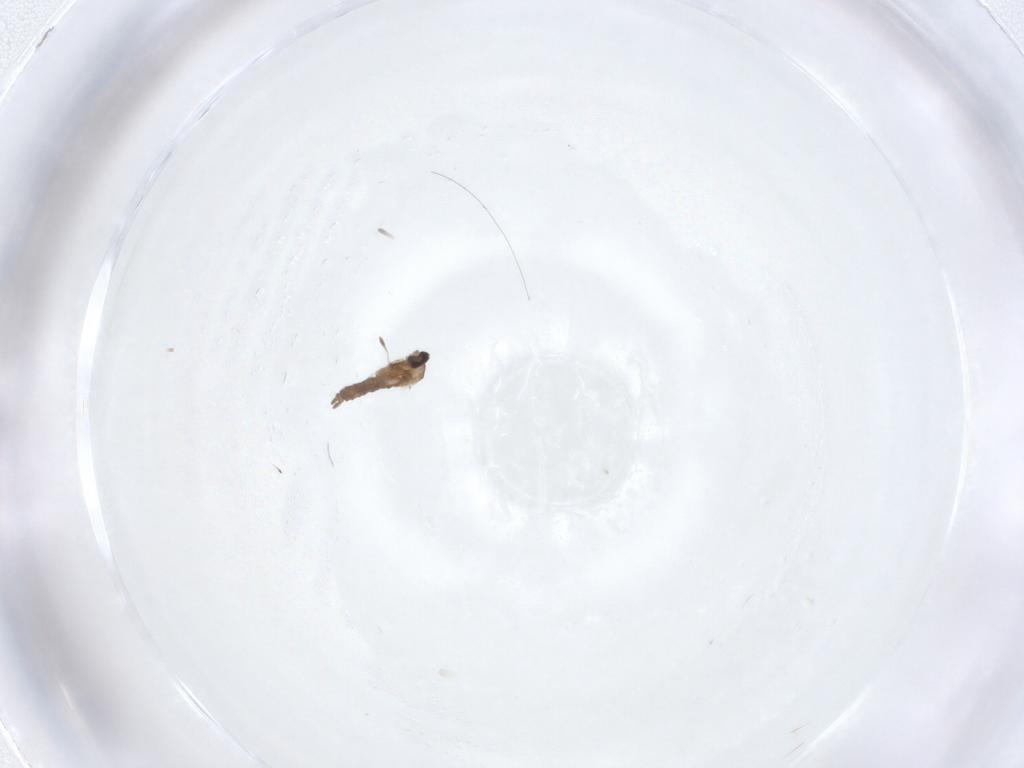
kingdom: Animalia
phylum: Arthropoda
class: Insecta
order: Diptera
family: Cecidomyiidae
